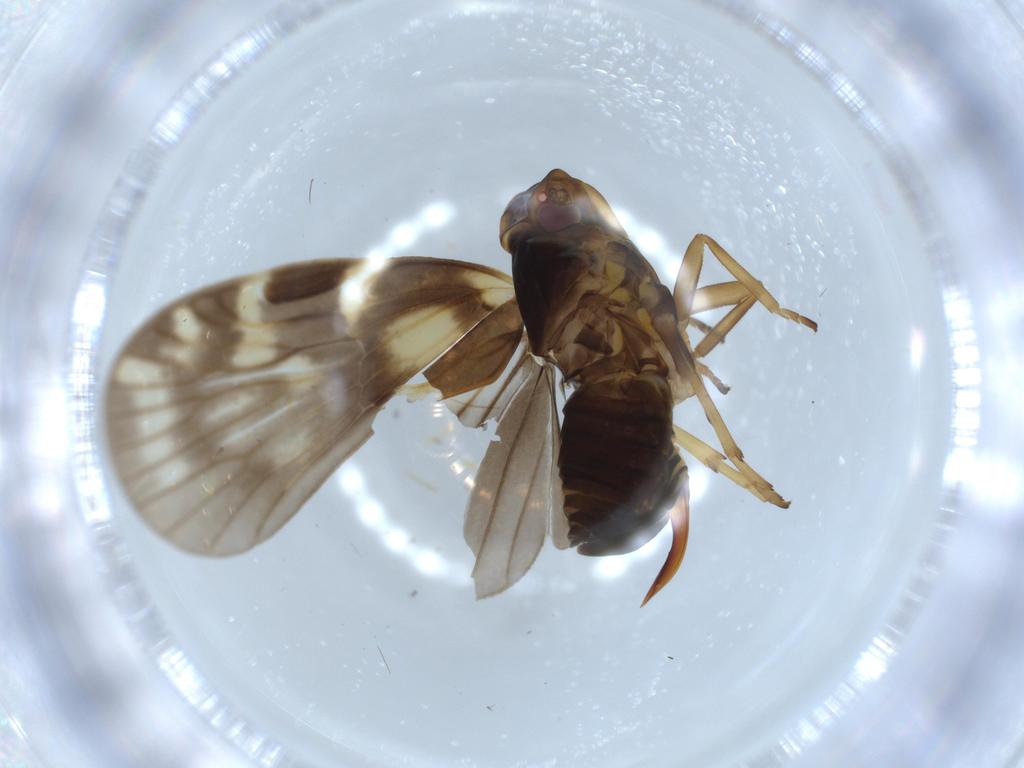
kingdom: Animalia
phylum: Arthropoda
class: Insecta
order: Hemiptera
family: Cixiidae
